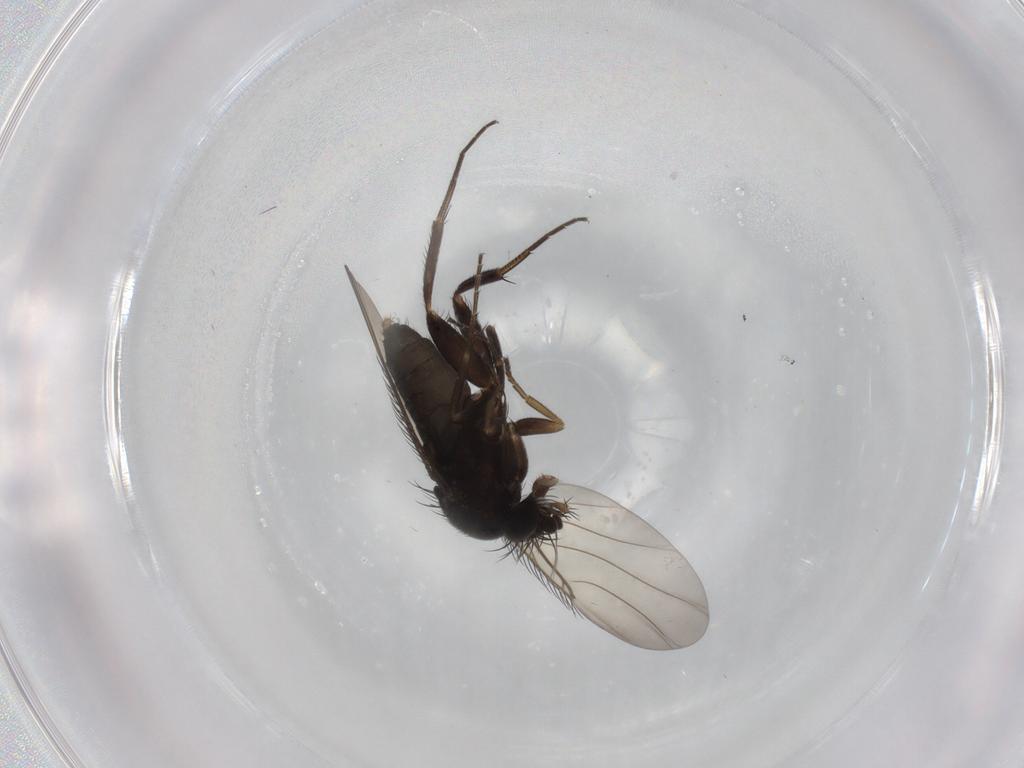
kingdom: Animalia
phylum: Arthropoda
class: Insecta
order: Diptera
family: Phoridae
